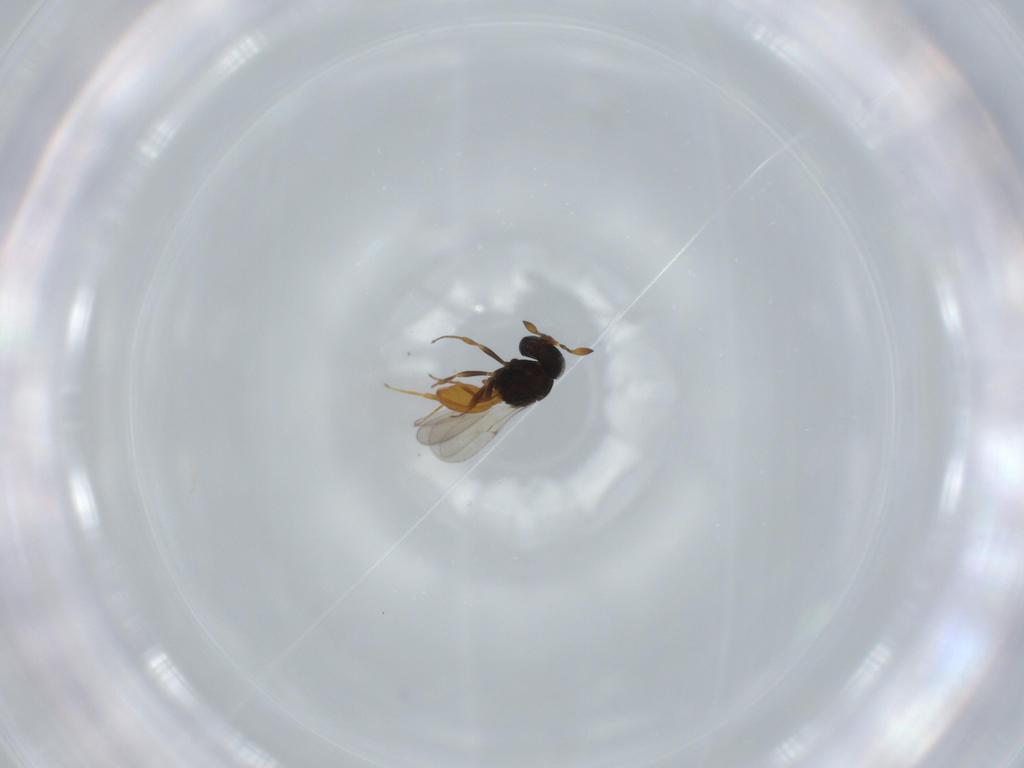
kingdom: Animalia
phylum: Arthropoda
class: Insecta
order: Hymenoptera
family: Scelionidae
